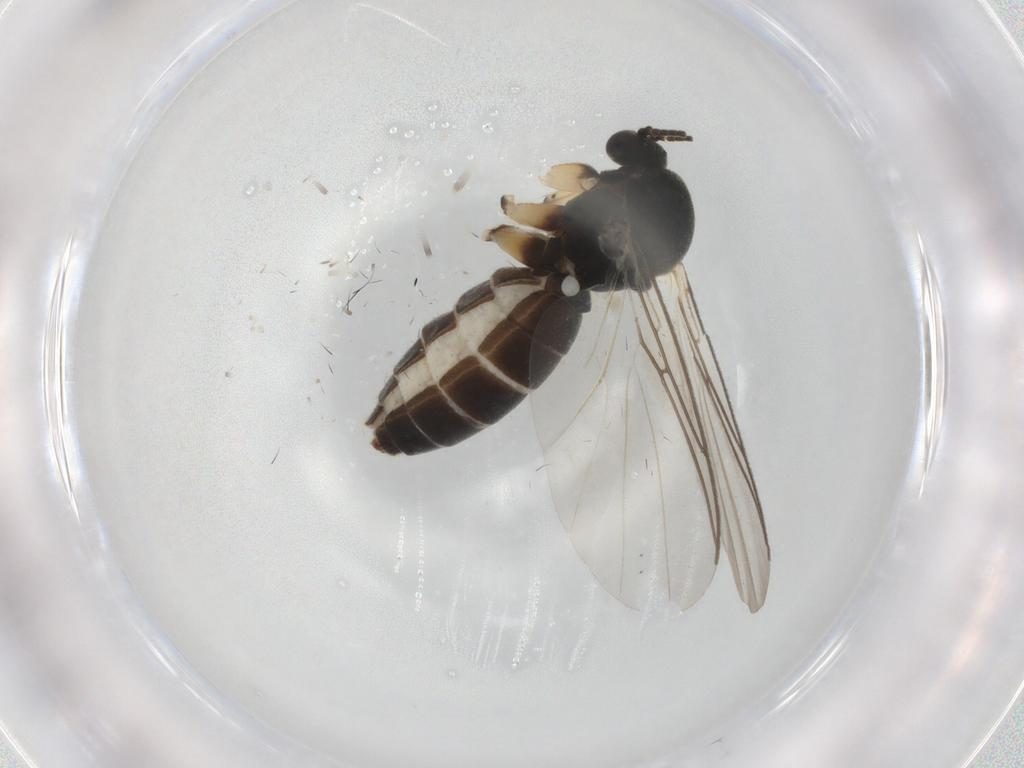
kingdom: Animalia
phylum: Arthropoda
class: Insecta
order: Diptera
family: Mycetophilidae
